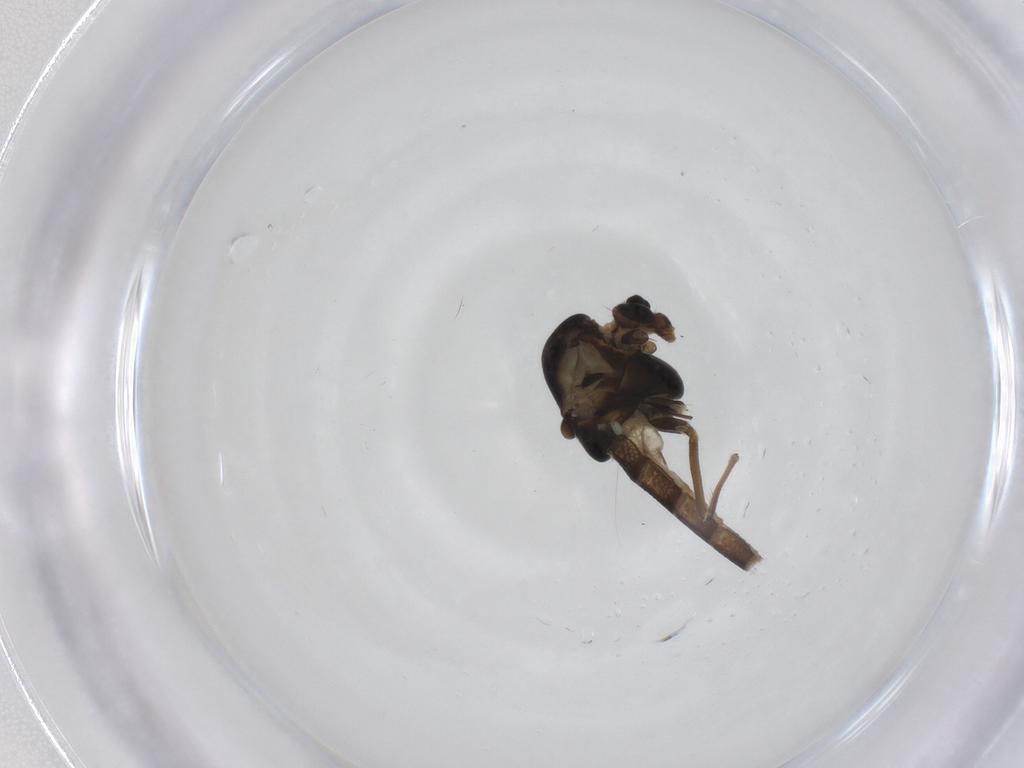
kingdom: Animalia
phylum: Arthropoda
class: Insecta
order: Diptera
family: Chironomidae
